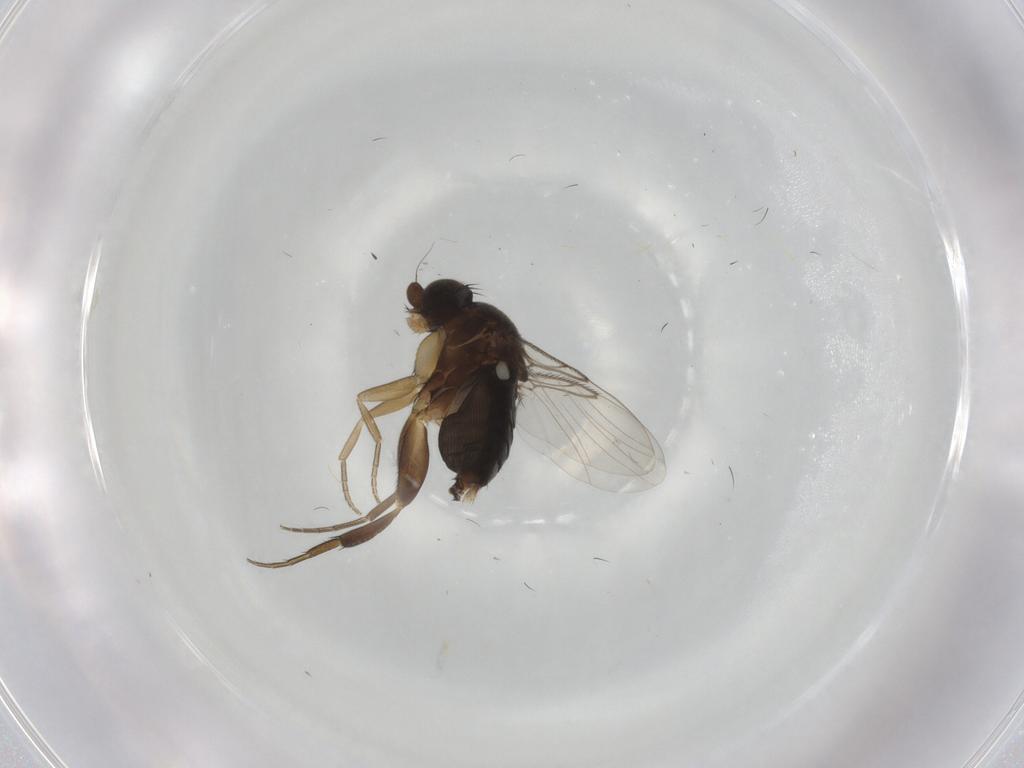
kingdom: Animalia
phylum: Arthropoda
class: Insecta
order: Diptera
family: Phoridae
